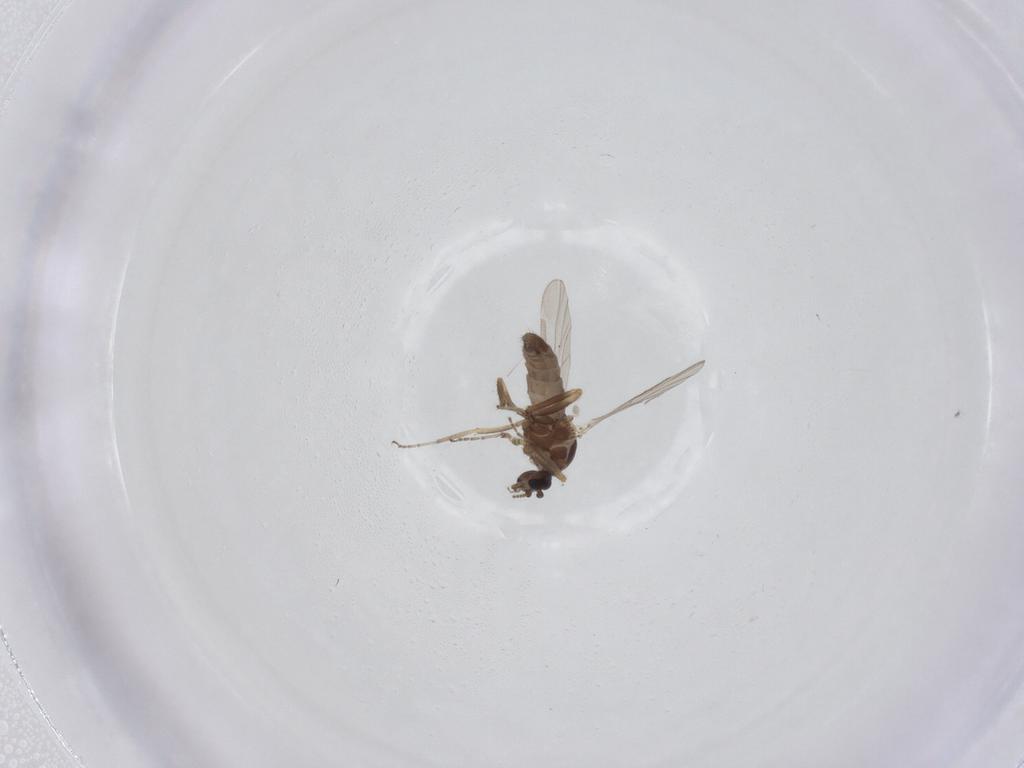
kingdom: Animalia
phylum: Arthropoda
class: Insecta
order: Diptera
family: Ceratopogonidae
